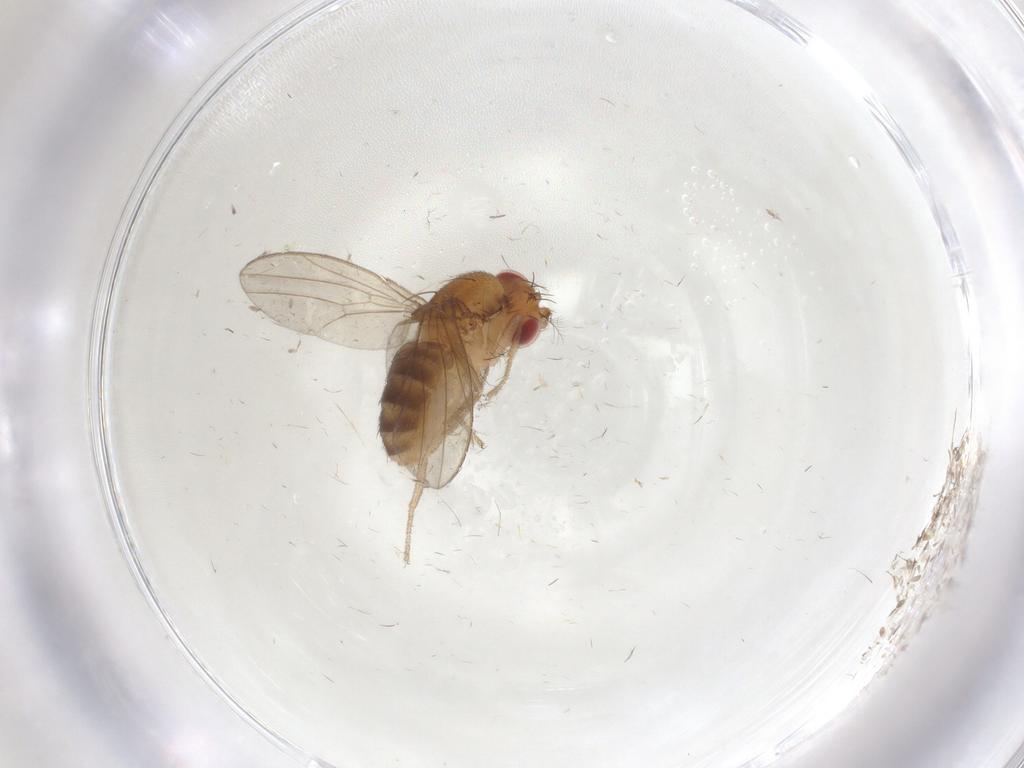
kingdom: Animalia
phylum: Arthropoda
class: Insecta
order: Diptera
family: Drosophilidae
